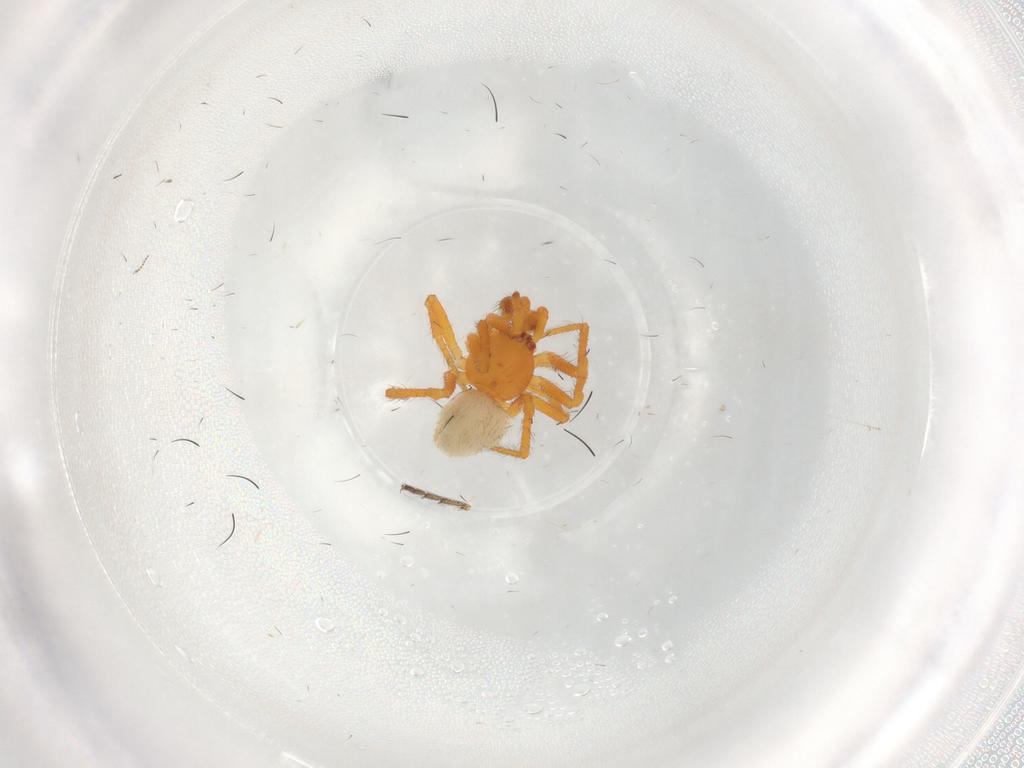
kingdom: Animalia
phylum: Arthropoda
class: Arachnida
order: Araneae
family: Theridiidae
